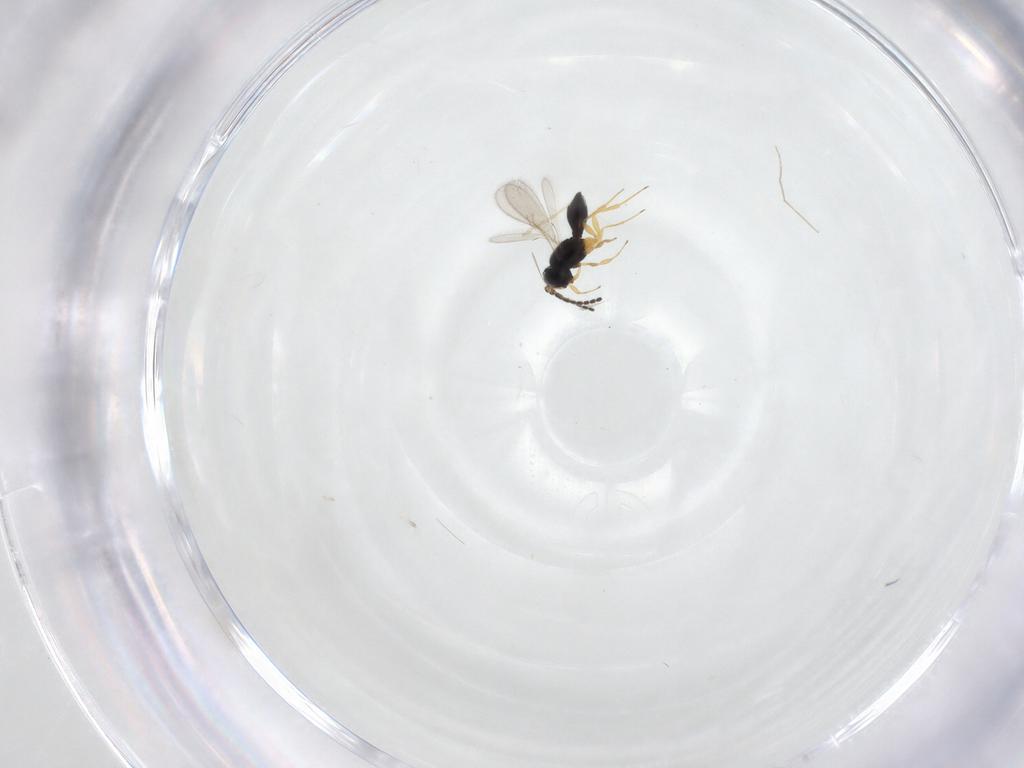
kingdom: Animalia
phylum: Arthropoda
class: Insecta
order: Hymenoptera
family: Scelionidae
